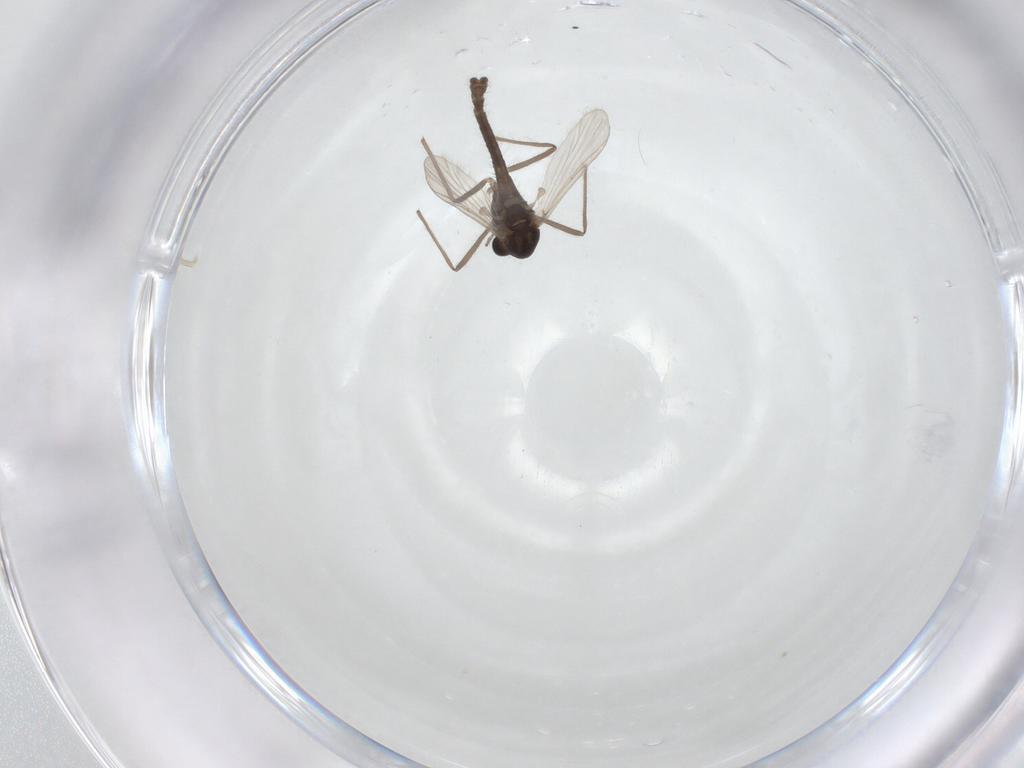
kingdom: Animalia
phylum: Arthropoda
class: Insecta
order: Diptera
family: Chironomidae
